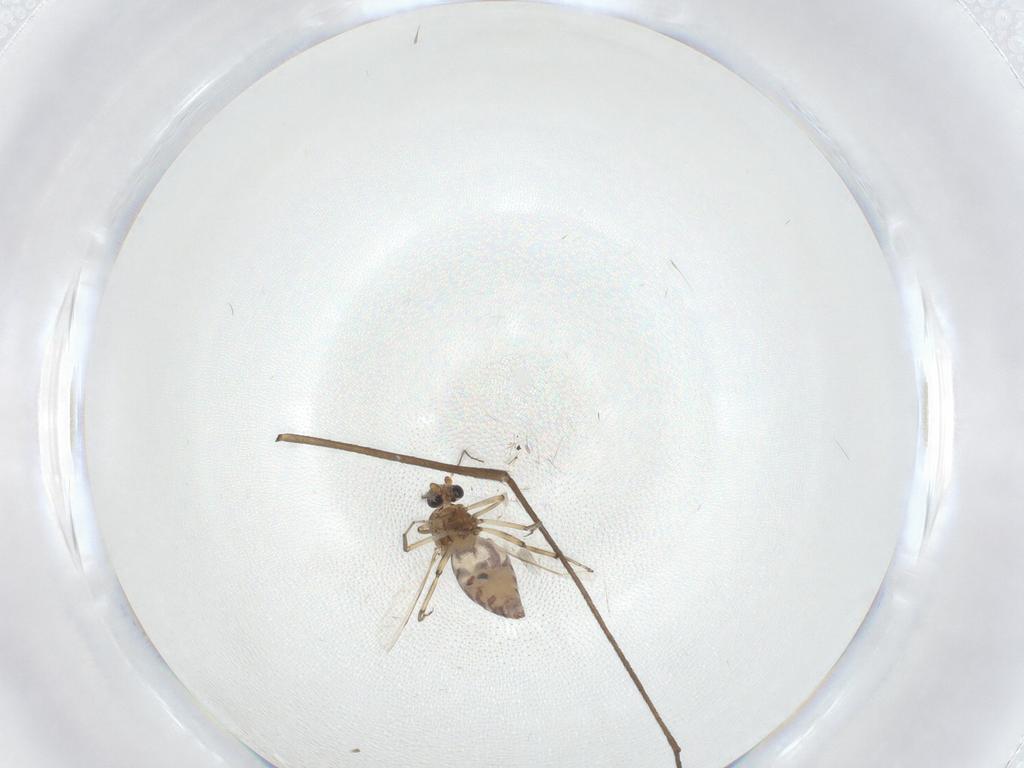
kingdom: Animalia
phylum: Arthropoda
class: Insecta
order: Diptera
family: Ceratopogonidae
